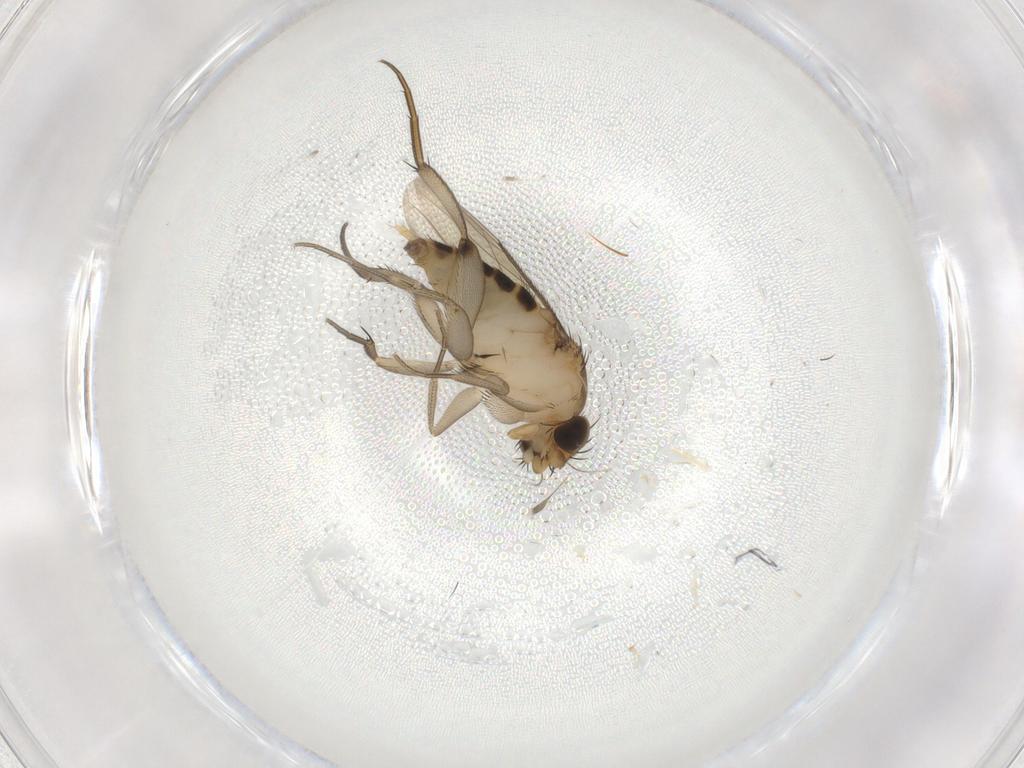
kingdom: Animalia
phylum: Arthropoda
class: Insecta
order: Diptera
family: Phoridae
